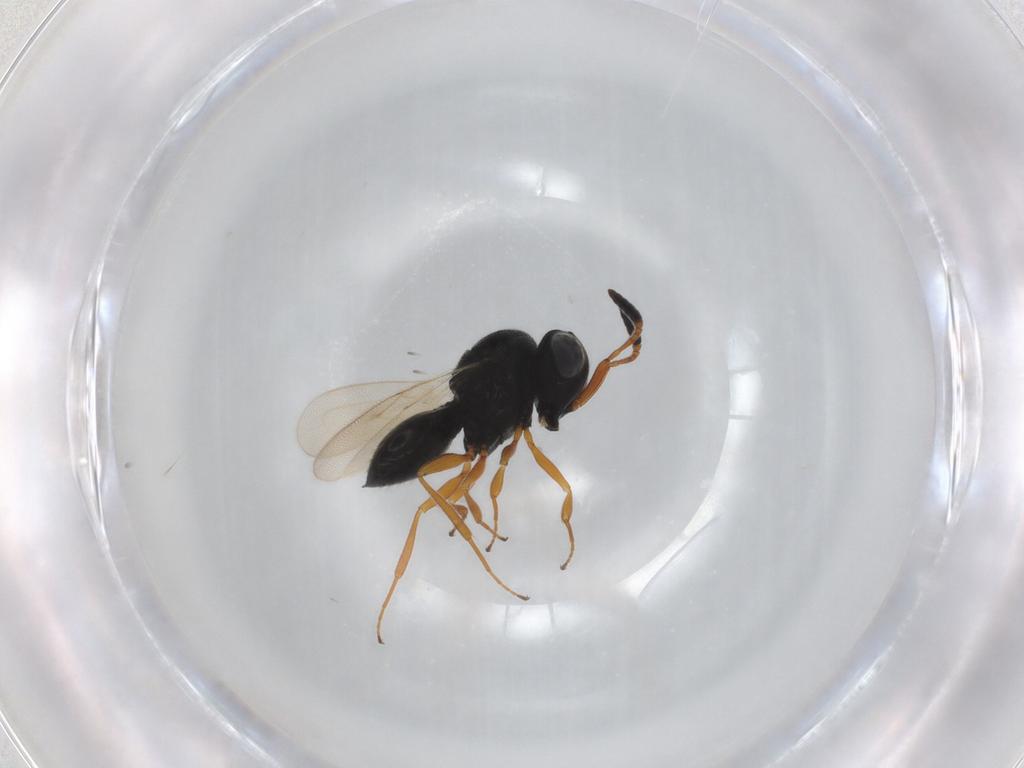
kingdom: Animalia
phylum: Arthropoda
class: Insecta
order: Hymenoptera
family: Scelionidae
